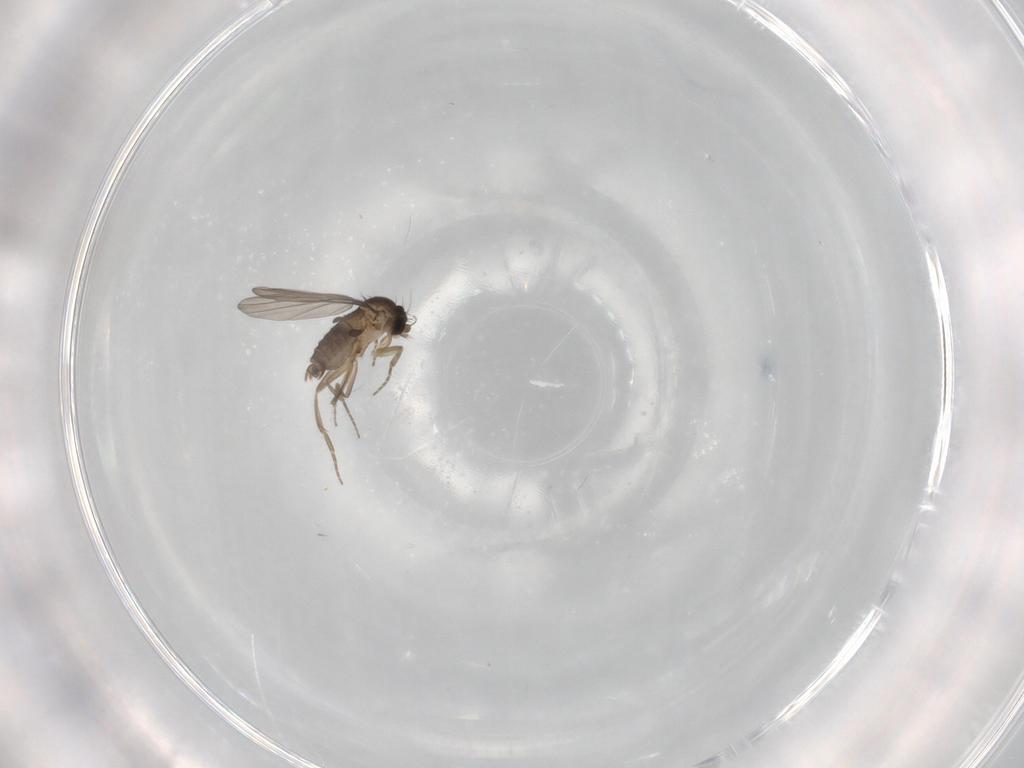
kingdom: Animalia
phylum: Arthropoda
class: Insecta
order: Diptera
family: Phoridae
